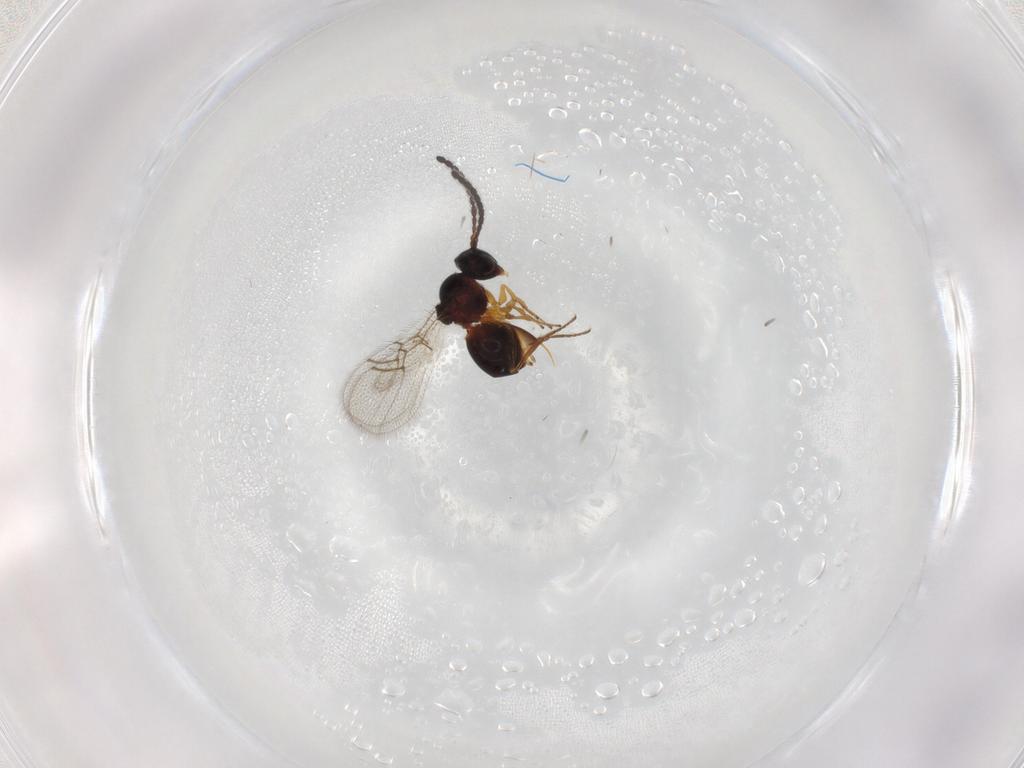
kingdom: Animalia
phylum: Arthropoda
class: Insecta
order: Hymenoptera
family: Figitidae
